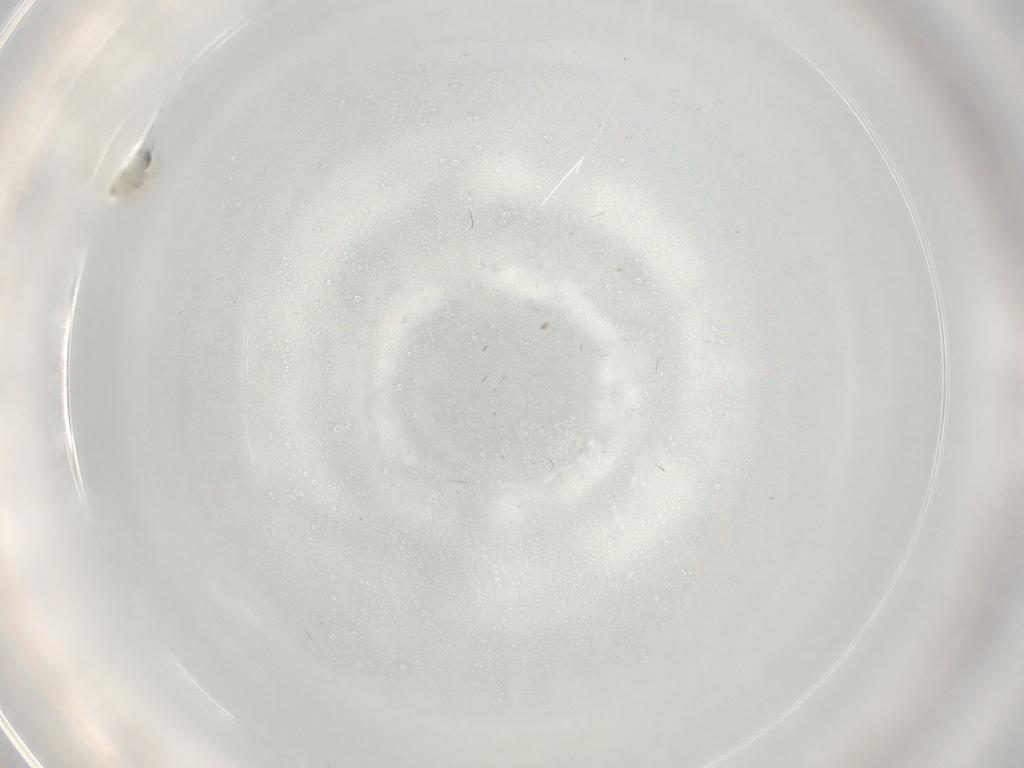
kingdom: Animalia
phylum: Arthropoda
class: Insecta
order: Diptera
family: Cecidomyiidae
